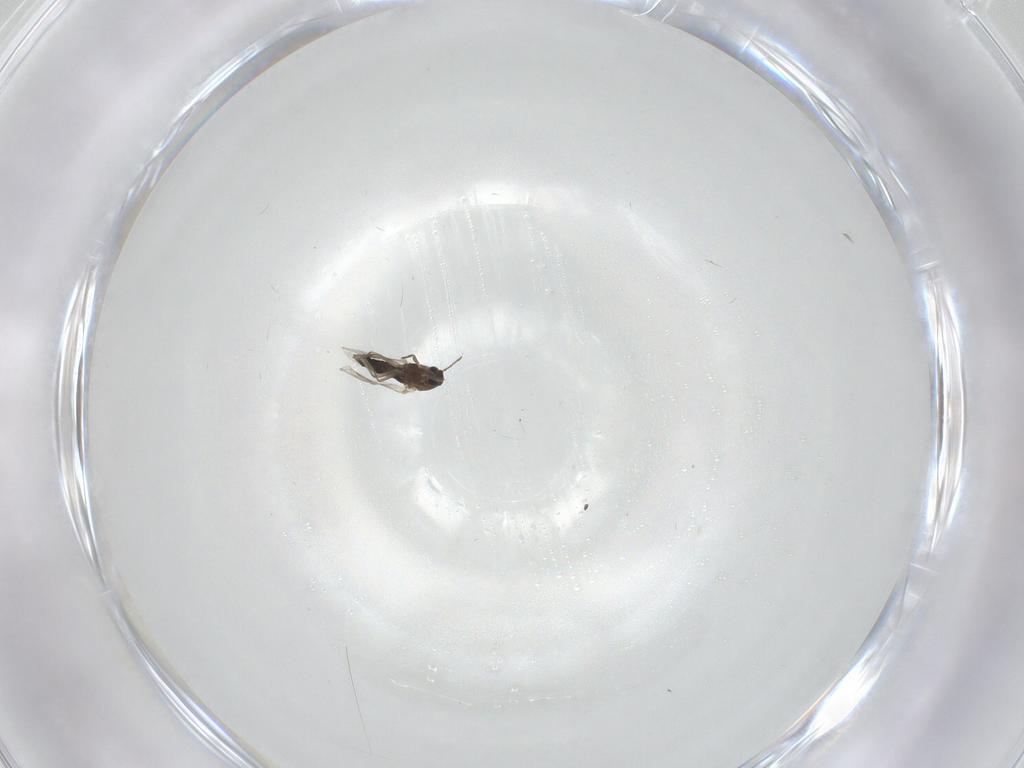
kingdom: Animalia
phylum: Arthropoda
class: Insecta
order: Diptera
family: Chironomidae
